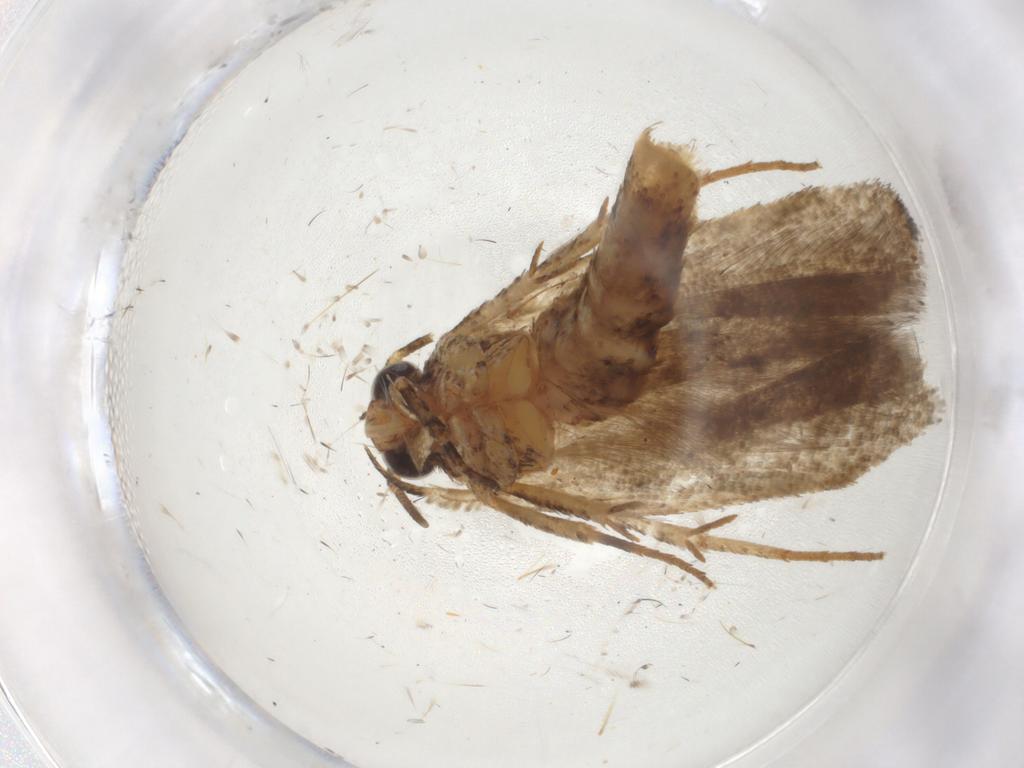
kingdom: Animalia
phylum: Arthropoda
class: Insecta
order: Lepidoptera
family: Gelechiidae
